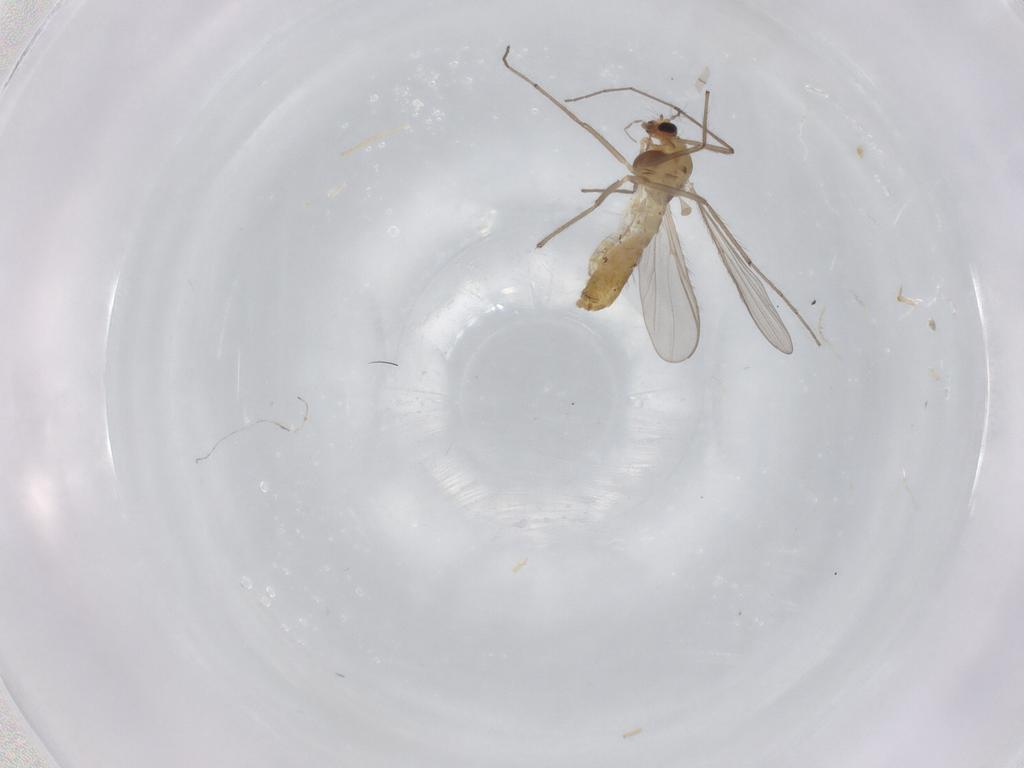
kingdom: Animalia
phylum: Arthropoda
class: Insecta
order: Diptera
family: Chironomidae
